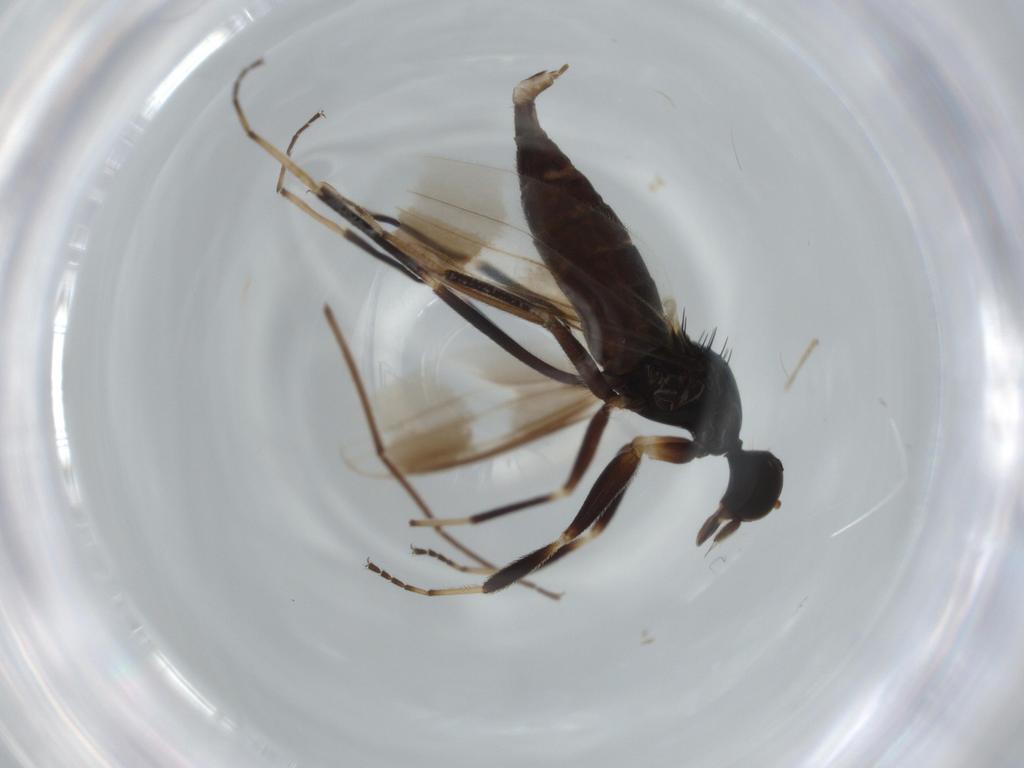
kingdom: Animalia
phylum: Arthropoda
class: Insecta
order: Diptera
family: Hybotidae
